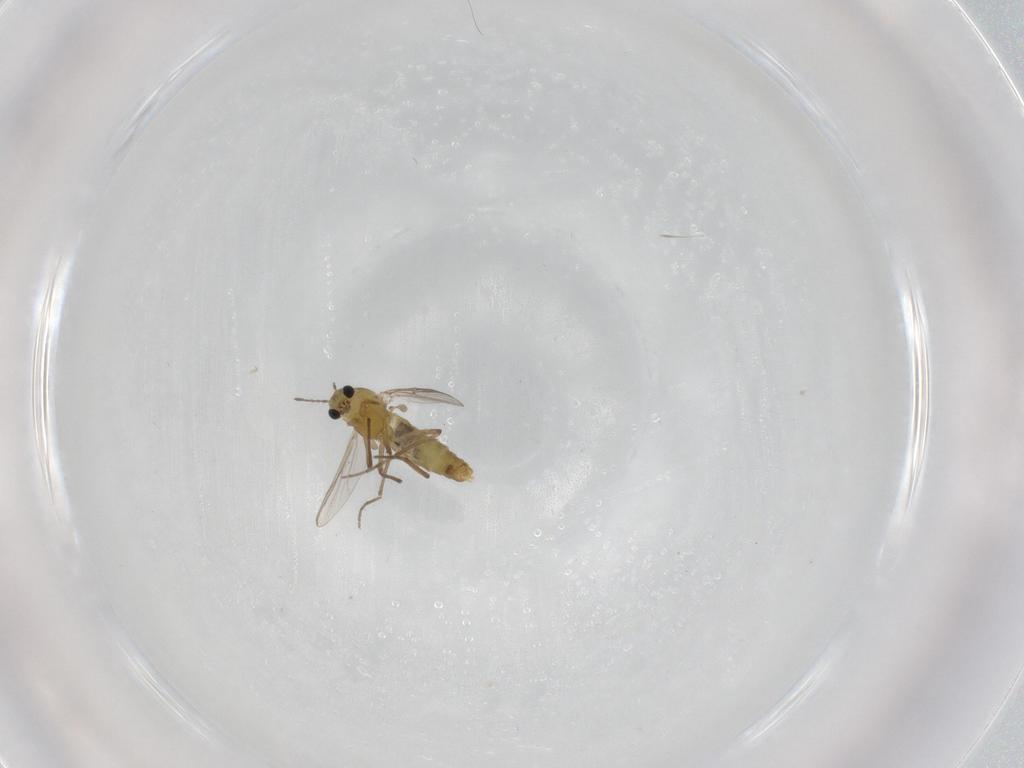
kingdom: Animalia
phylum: Arthropoda
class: Insecta
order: Diptera
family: Chironomidae
